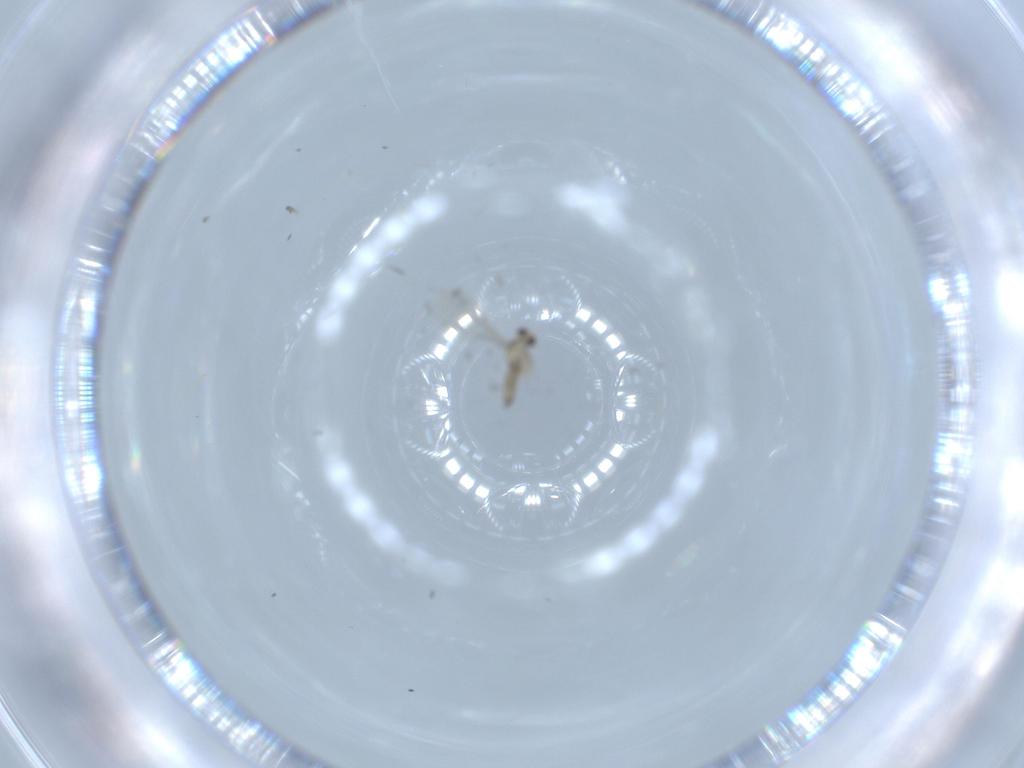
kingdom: Animalia
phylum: Arthropoda
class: Insecta
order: Diptera
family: Cecidomyiidae
